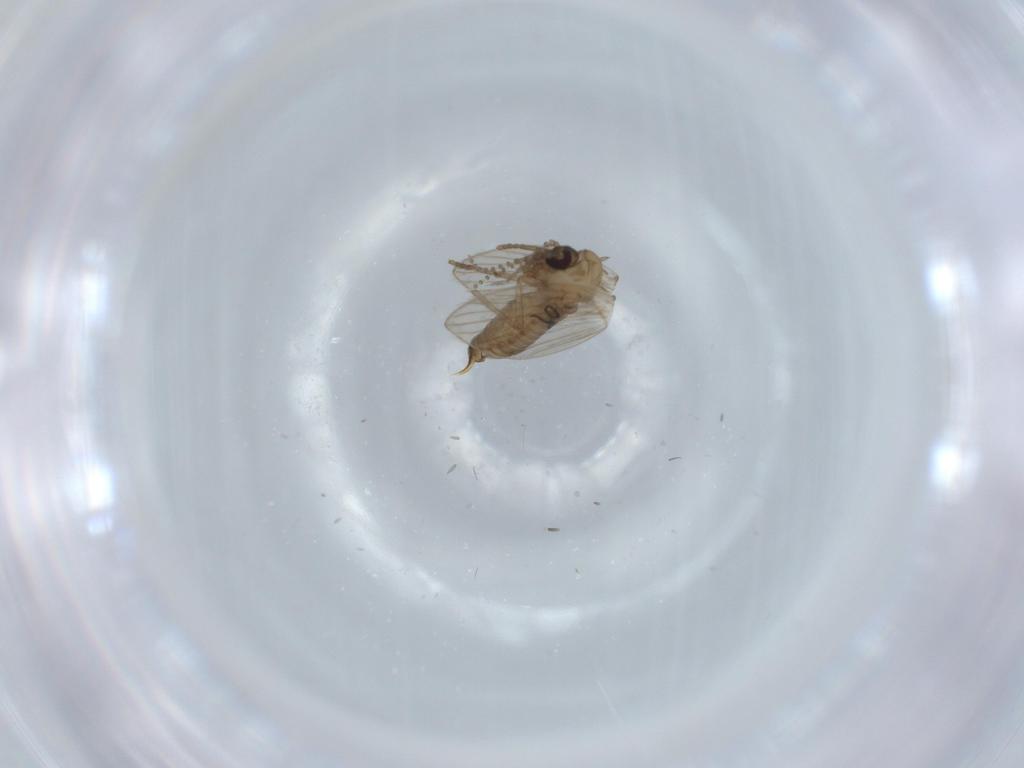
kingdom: Animalia
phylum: Arthropoda
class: Insecta
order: Diptera
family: Psychodidae
